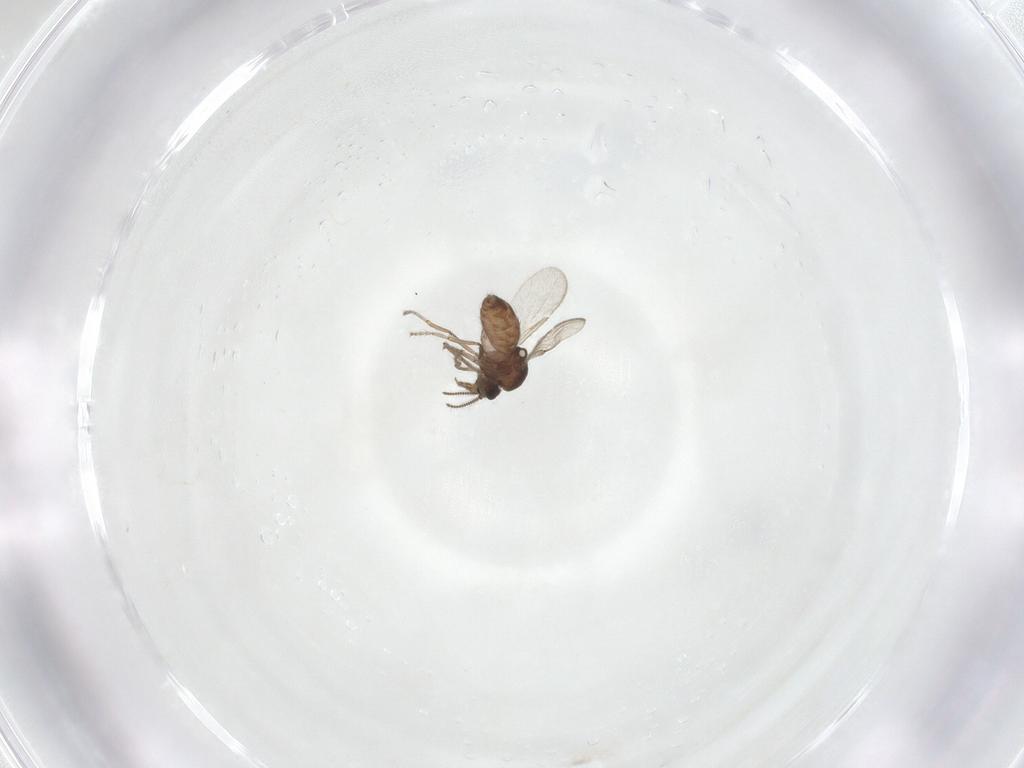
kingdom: Animalia
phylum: Arthropoda
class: Insecta
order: Diptera
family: Ceratopogonidae
